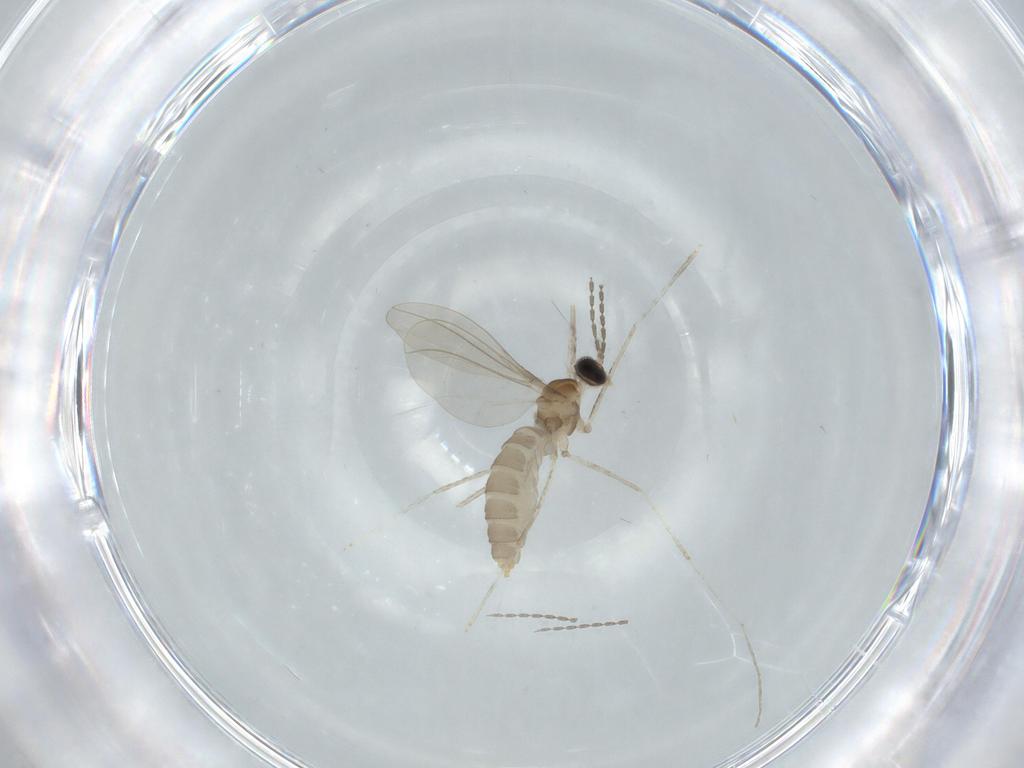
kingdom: Animalia
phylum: Arthropoda
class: Insecta
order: Diptera
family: Cecidomyiidae
